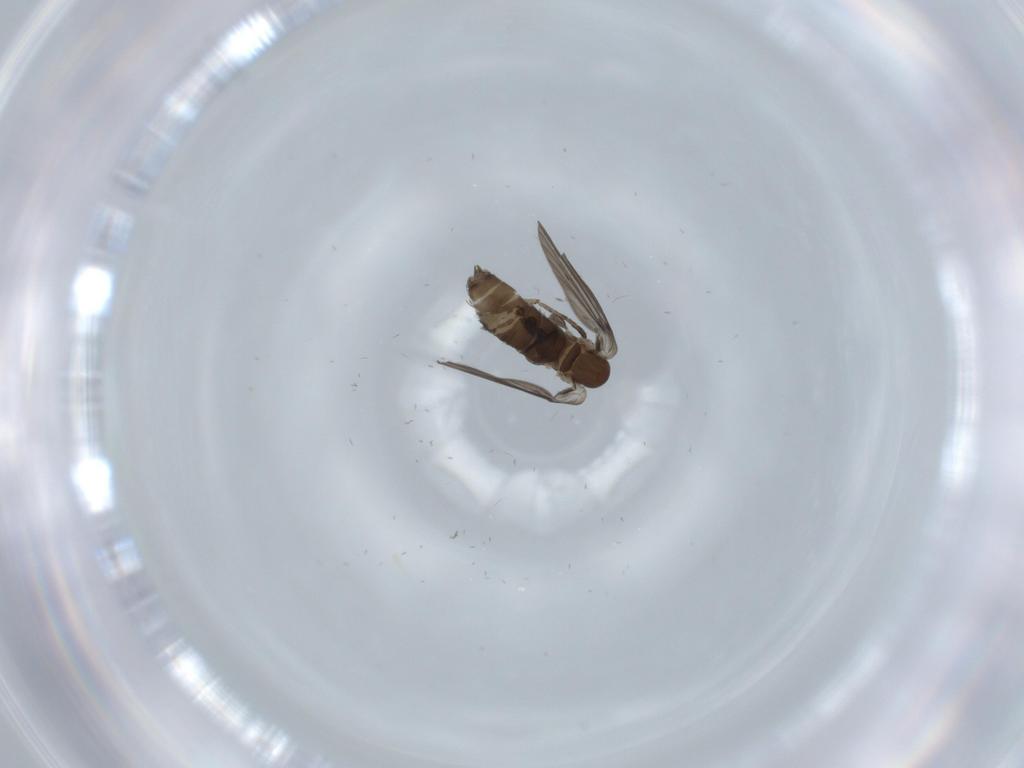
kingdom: Animalia
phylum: Arthropoda
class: Insecta
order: Diptera
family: Psychodidae
